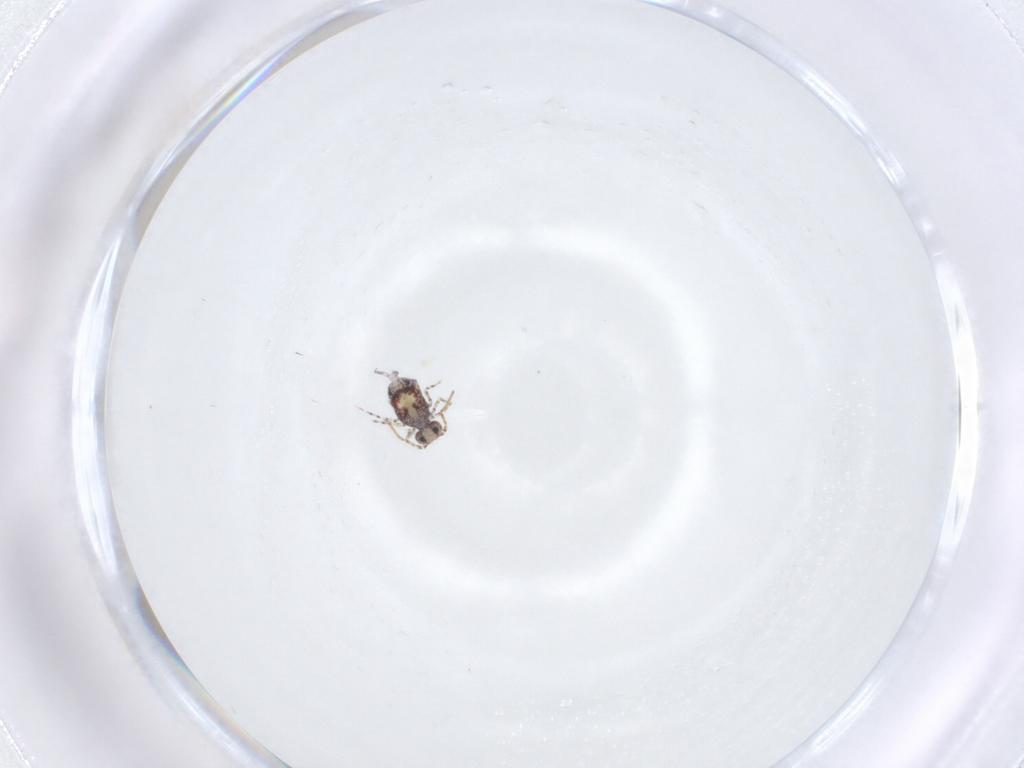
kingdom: Animalia
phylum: Arthropoda
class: Collembola
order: Symphypleona
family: Bourletiellidae
